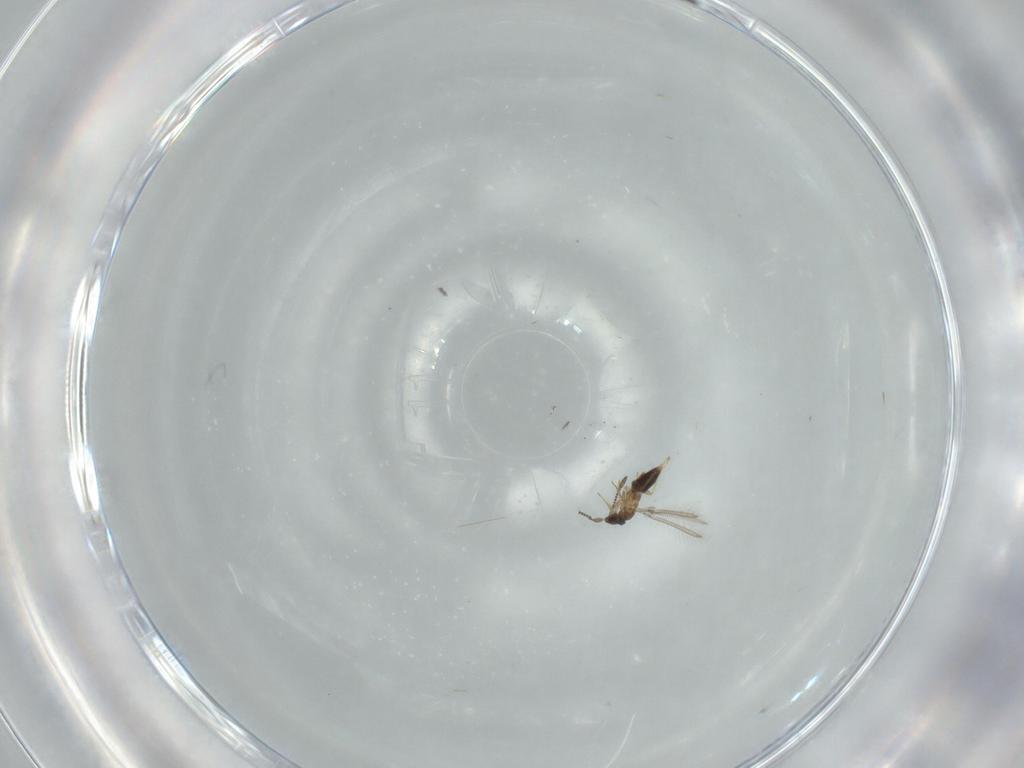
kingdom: Animalia
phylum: Arthropoda
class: Insecta
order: Hymenoptera
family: Mymaridae
